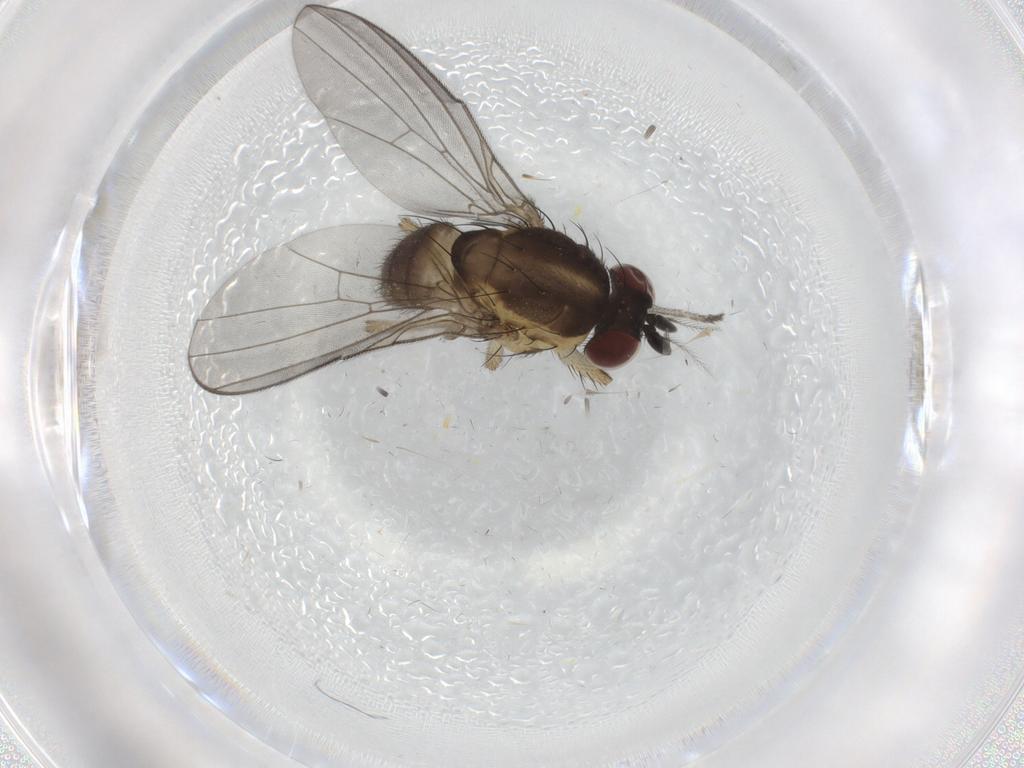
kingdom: Animalia
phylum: Arthropoda
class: Insecta
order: Diptera
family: Lauxaniidae
